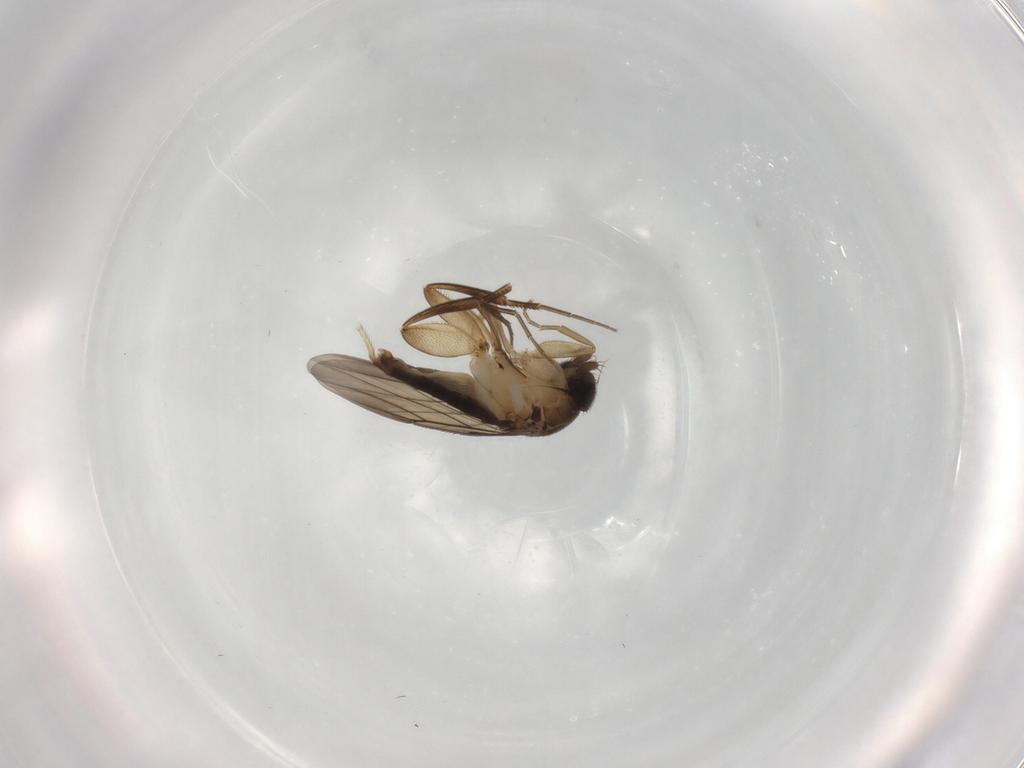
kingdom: Animalia
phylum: Arthropoda
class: Insecta
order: Diptera
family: Phoridae
